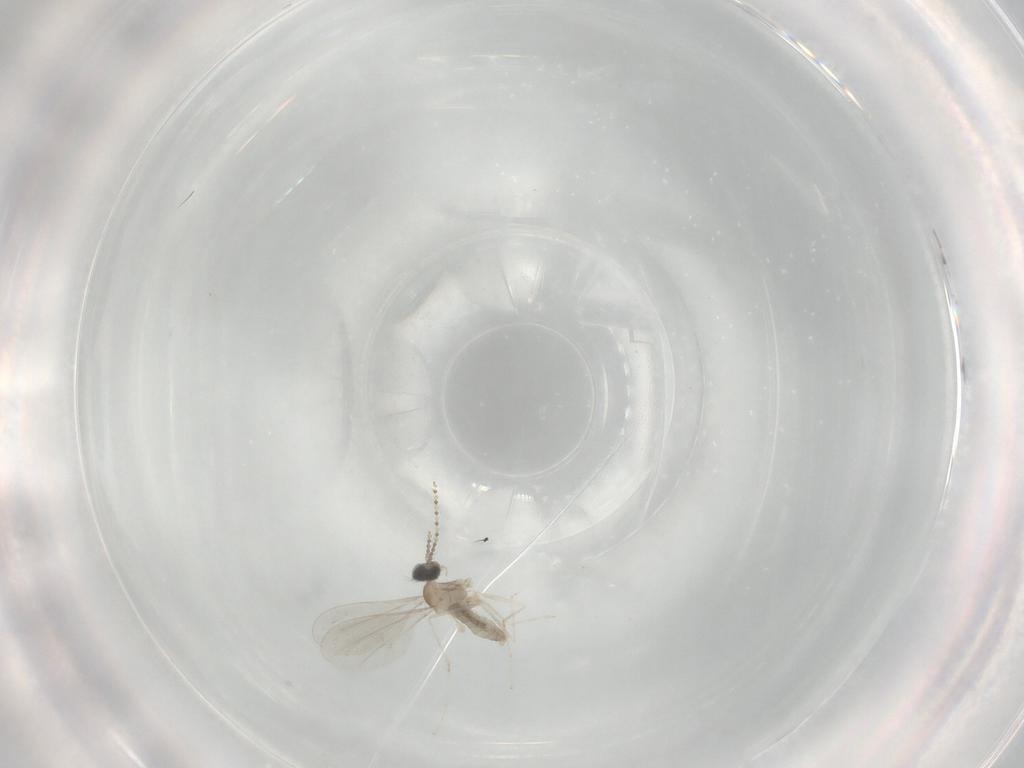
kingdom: Animalia
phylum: Arthropoda
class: Insecta
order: Diptera
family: Cecidomyiidae
